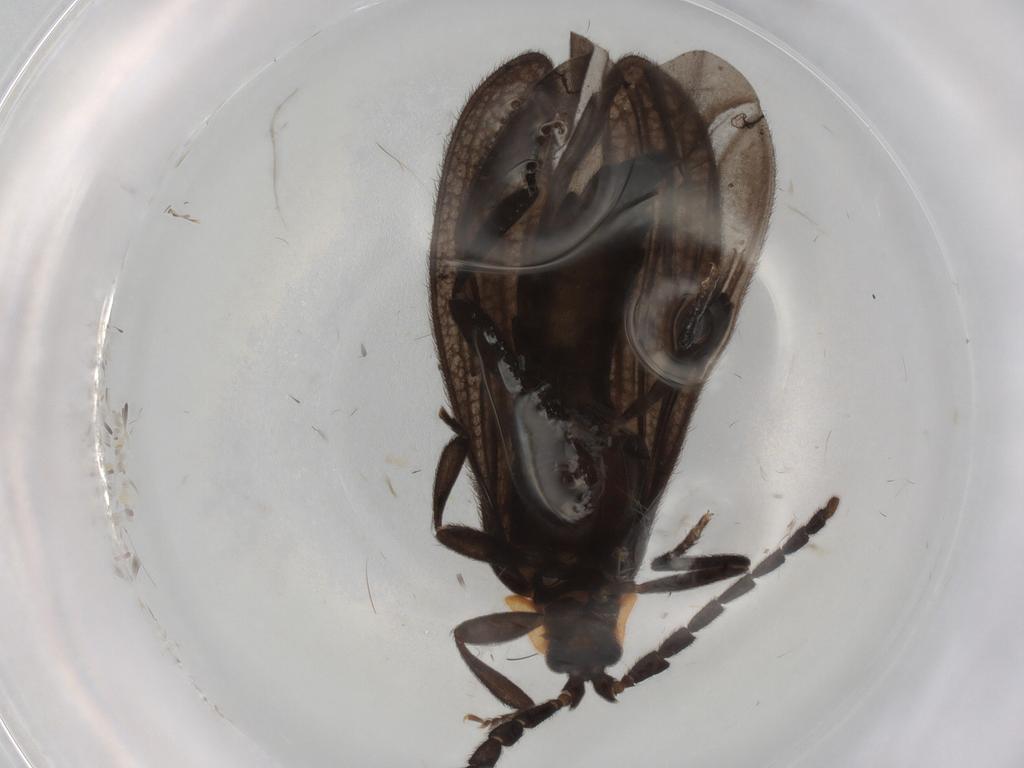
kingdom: Animalia
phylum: Arthropoda
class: Insecta
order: Coleoptera
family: Lycidae
